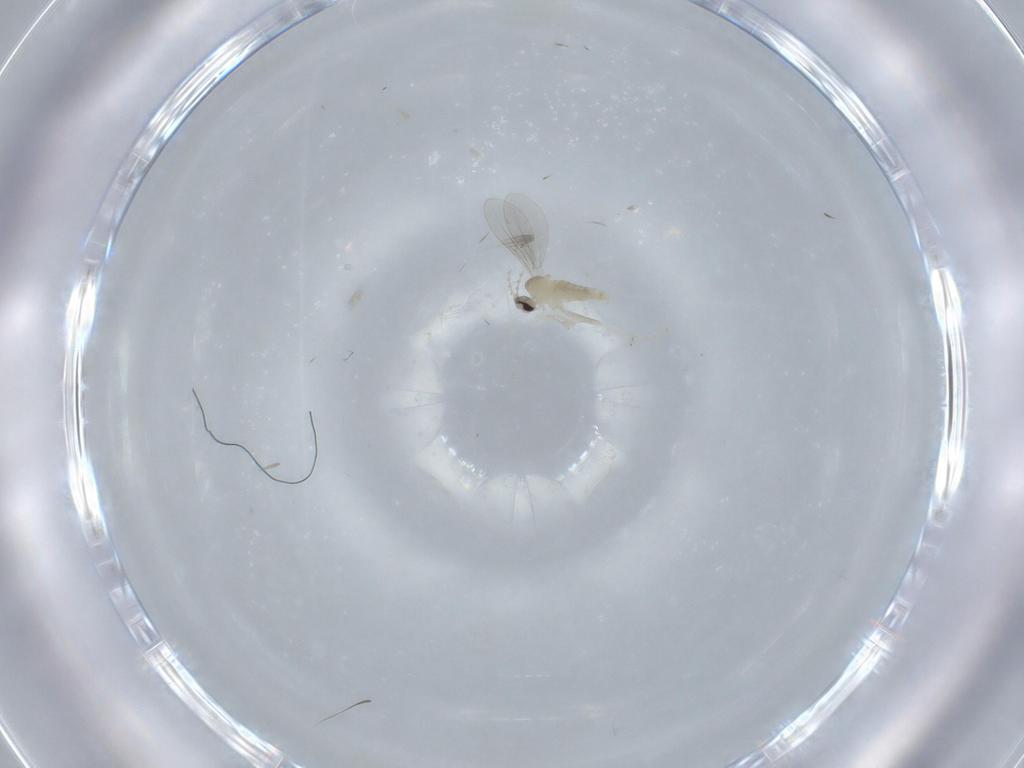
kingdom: Animalia
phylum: Arthropoda
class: Insecta
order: Diptera
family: Cecidomyiidae
